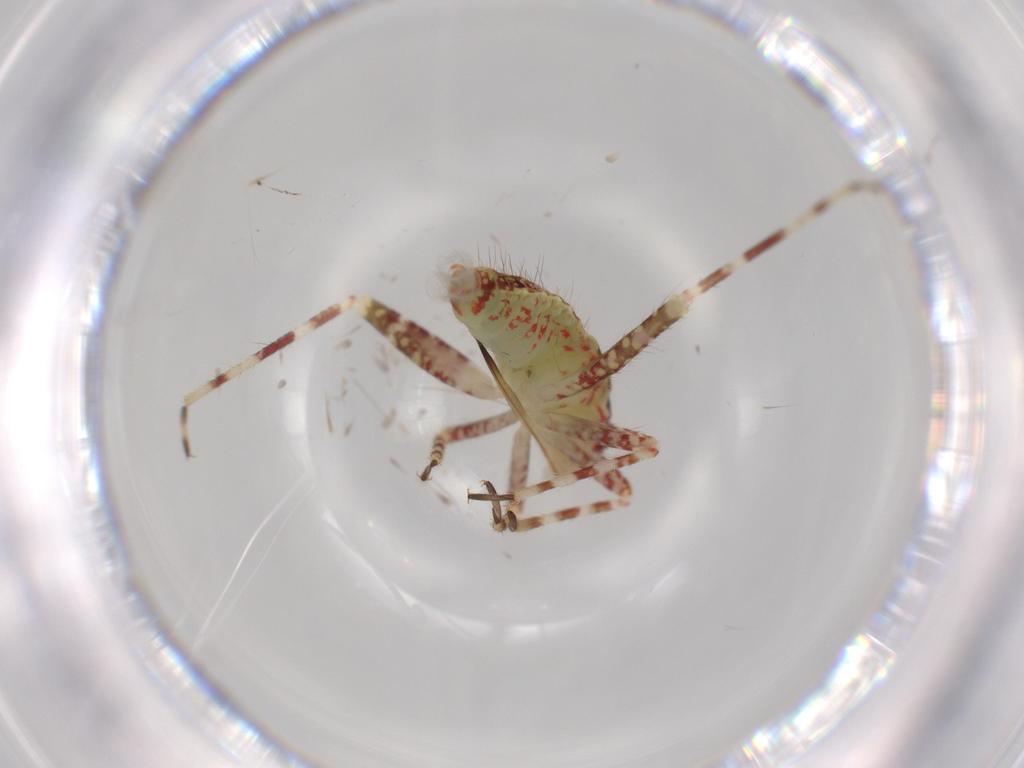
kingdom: Animalia
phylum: Arthropoda
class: Insecta
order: Hemiptera
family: Miridae
